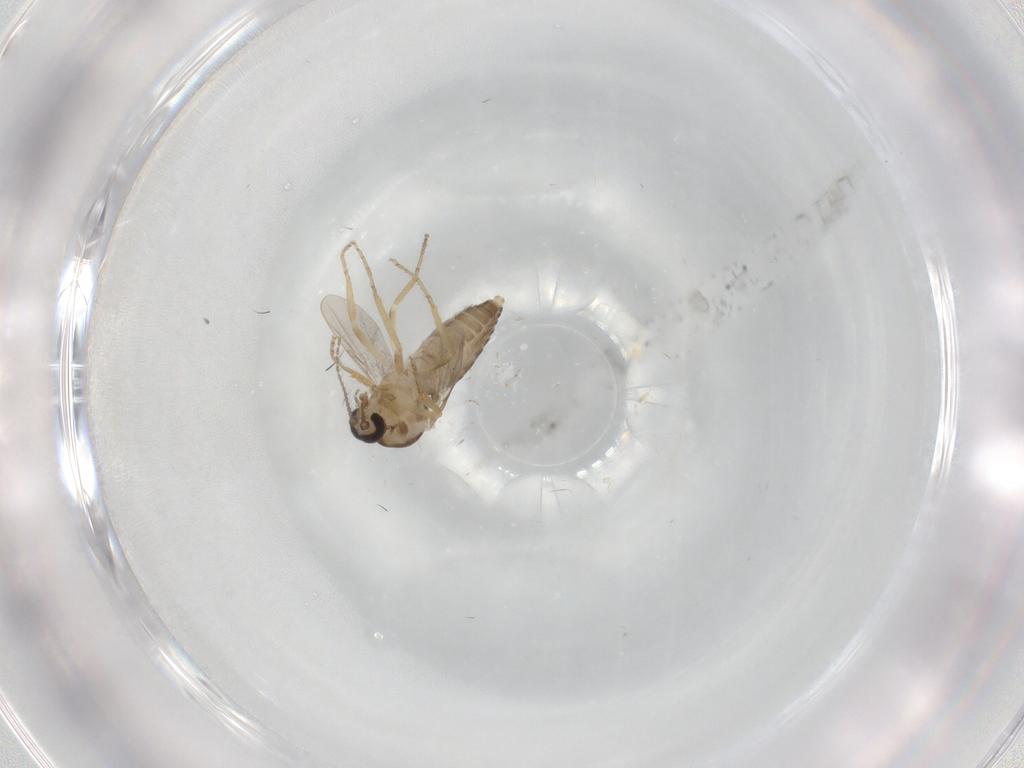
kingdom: Animalia
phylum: Arthropoda
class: Insecta
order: Diptera
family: Ceratopogonidae
